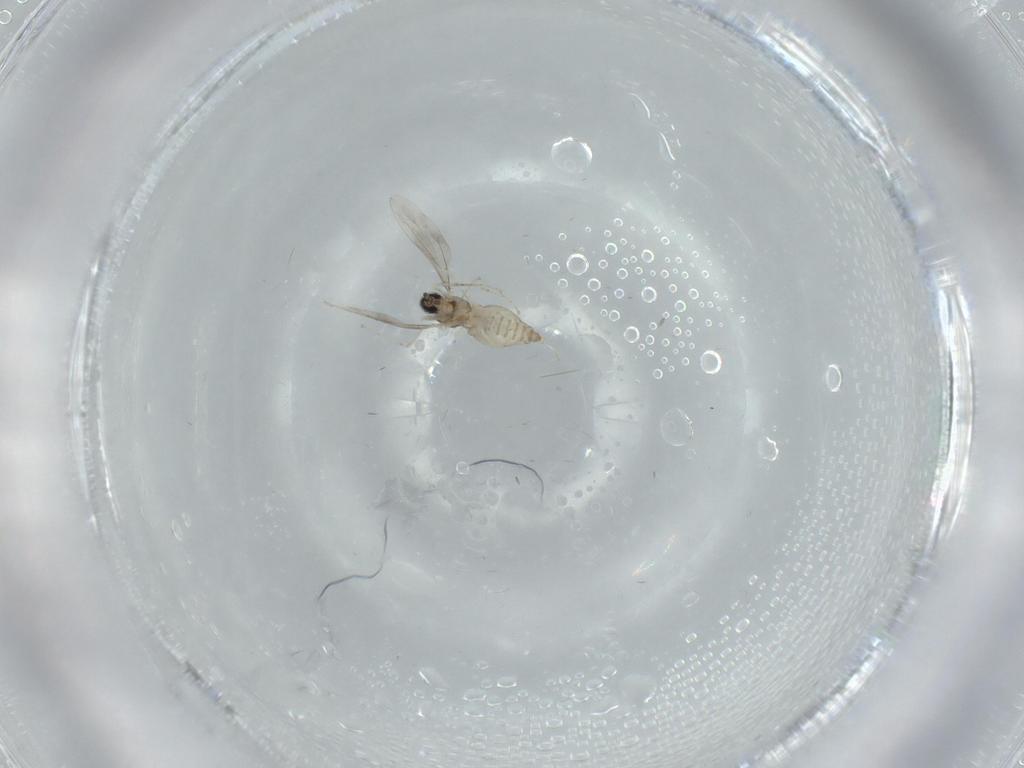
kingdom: Animalia
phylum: Arthropoda
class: Insecta
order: Diptera
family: Cecidomyiidae
